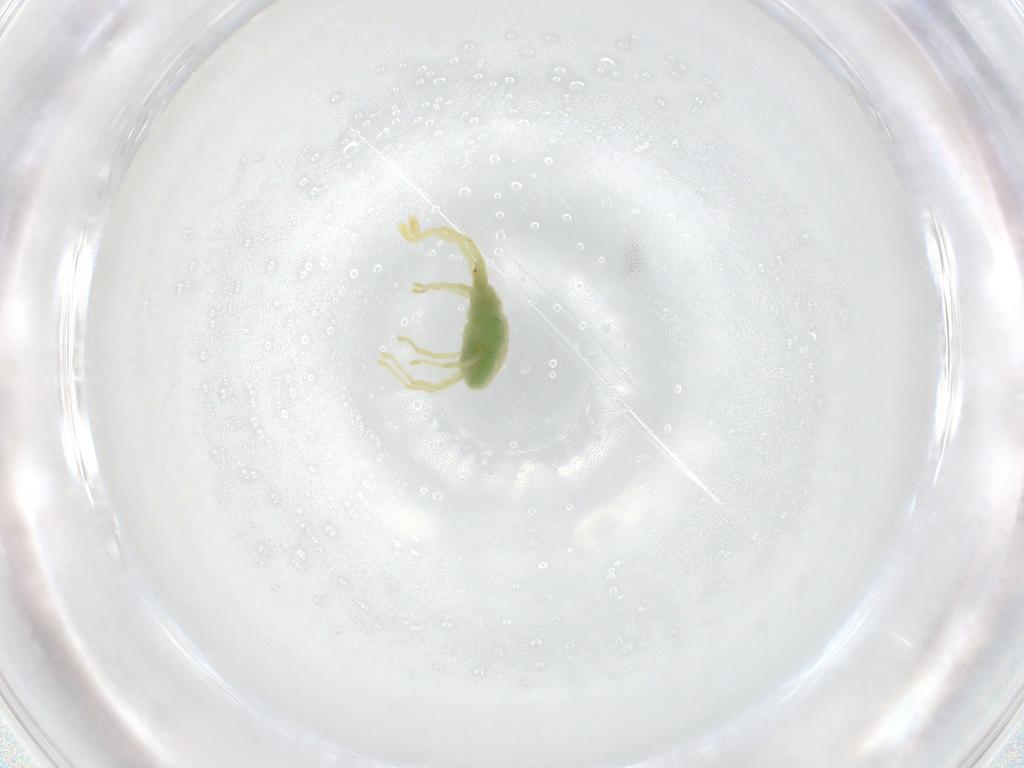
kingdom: Animalia
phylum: Arthropoda
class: Arachnida
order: Trombidiformes
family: Erythraeidae
